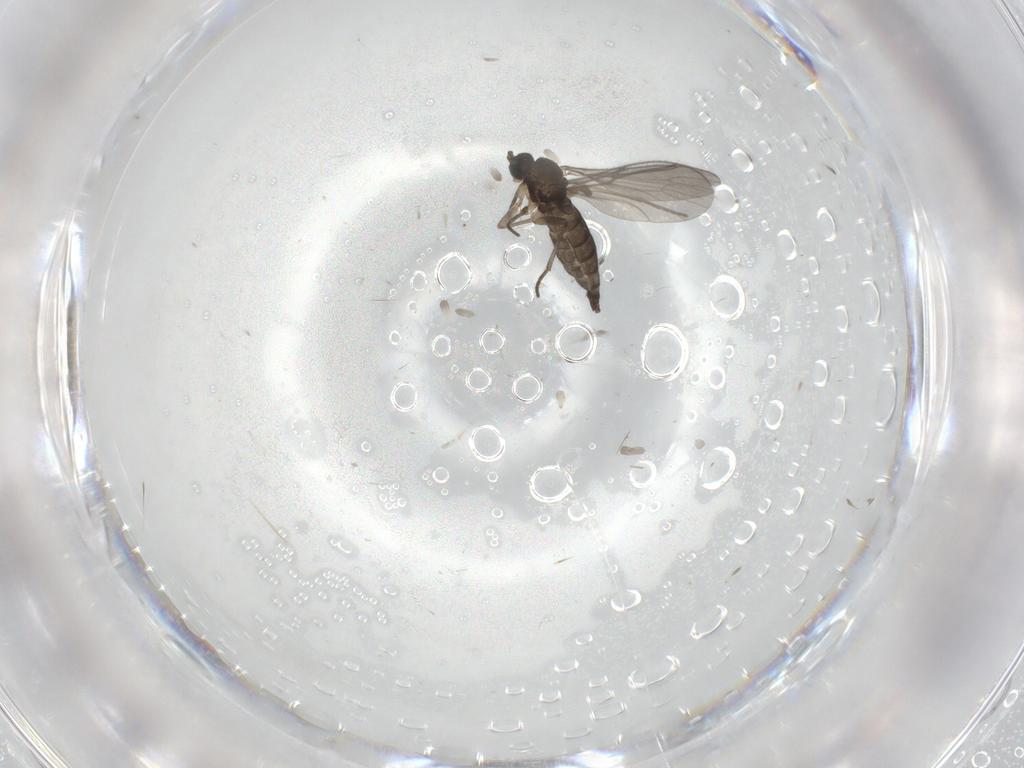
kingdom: Animalia
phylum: Arthropoda
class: Insecta
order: Diptera
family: Sciaridae
